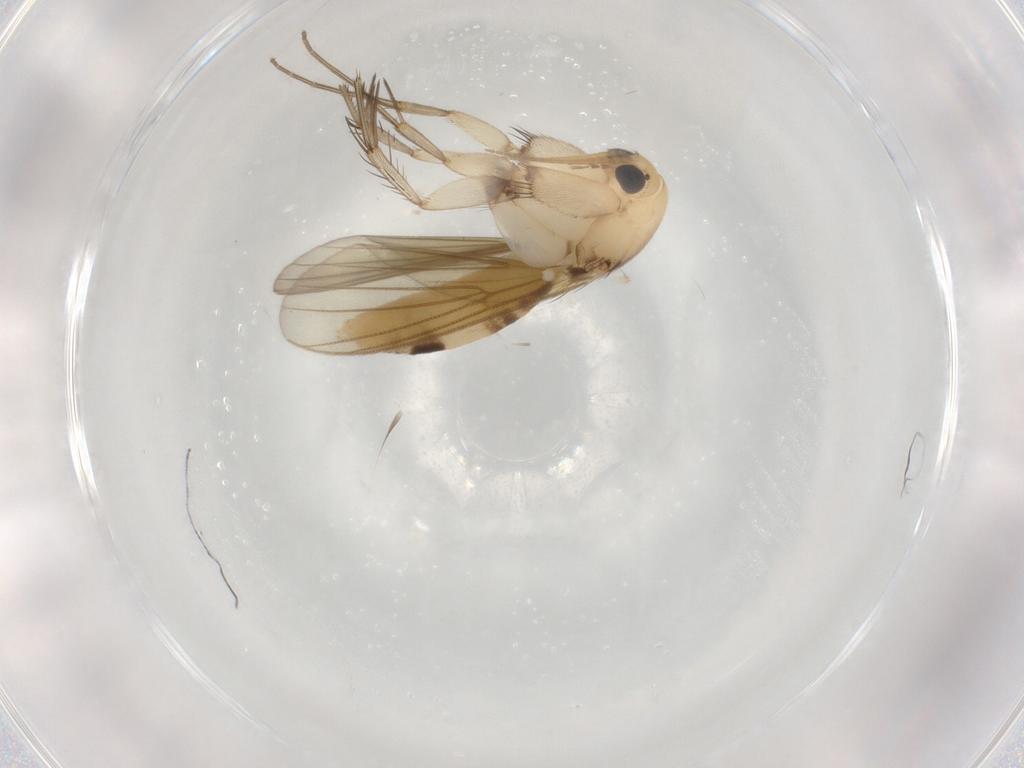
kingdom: Animalia
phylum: Arthropoda
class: Insecta
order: Diptera
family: Mycetophilidae
